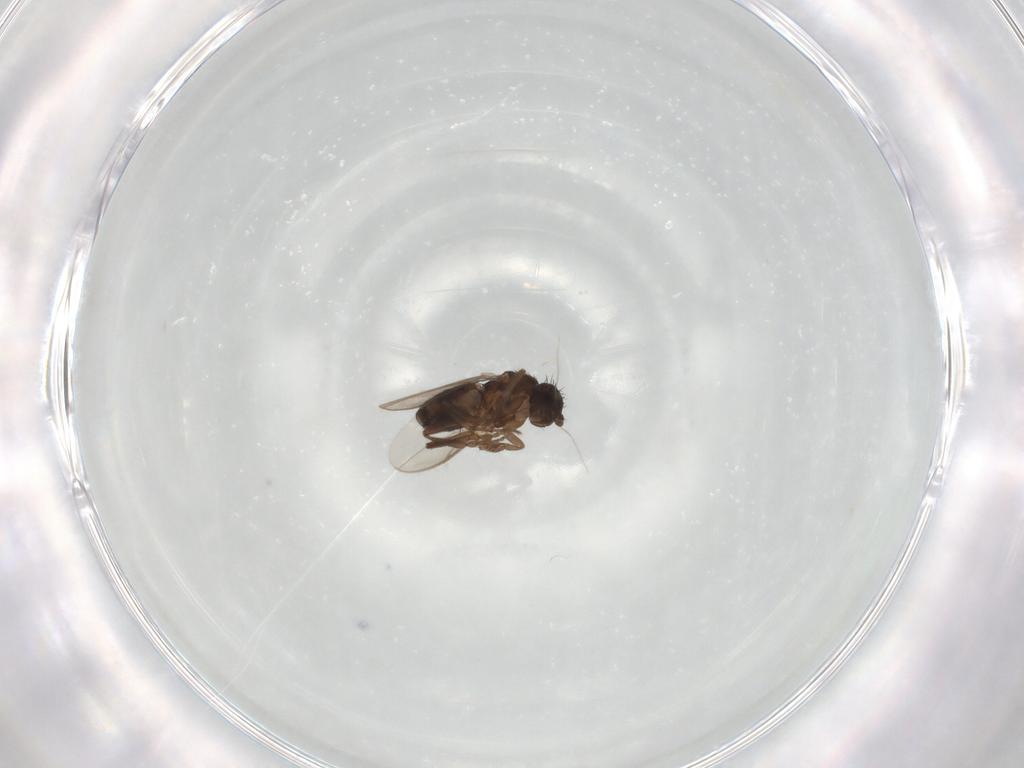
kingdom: Animalia
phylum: Arthropoda
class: Insecta
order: Diptera
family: Sphaeroceridae
